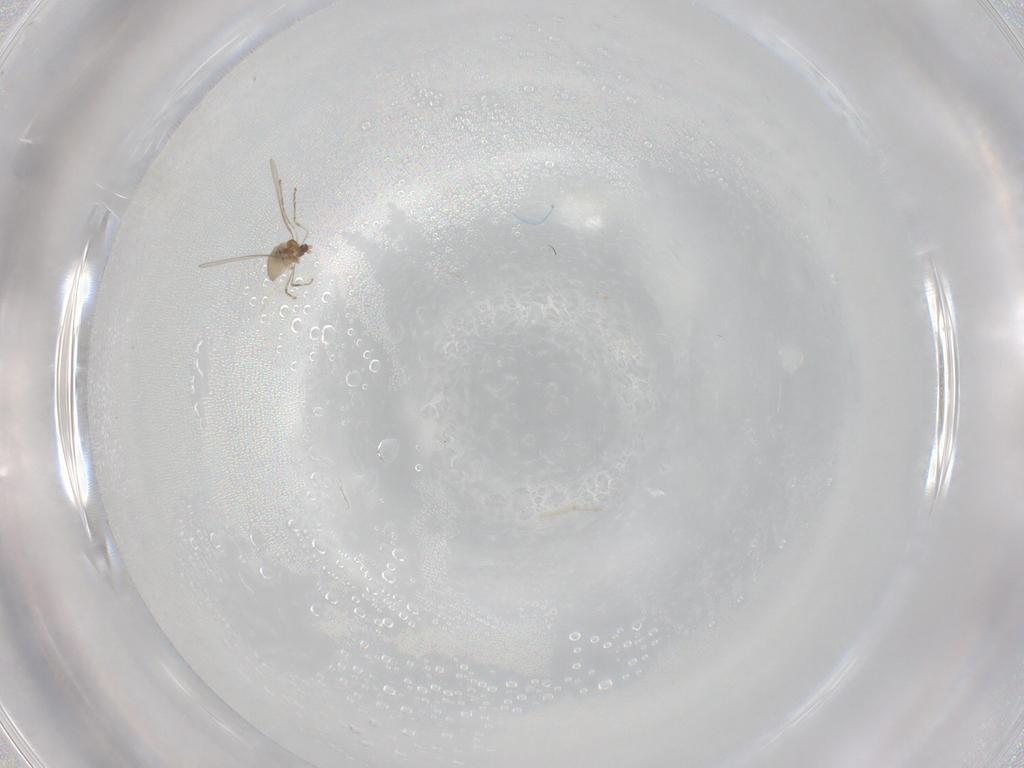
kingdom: Animalia
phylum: Arthropoda
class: Insecta
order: Diptera
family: Cecidomyiidae
